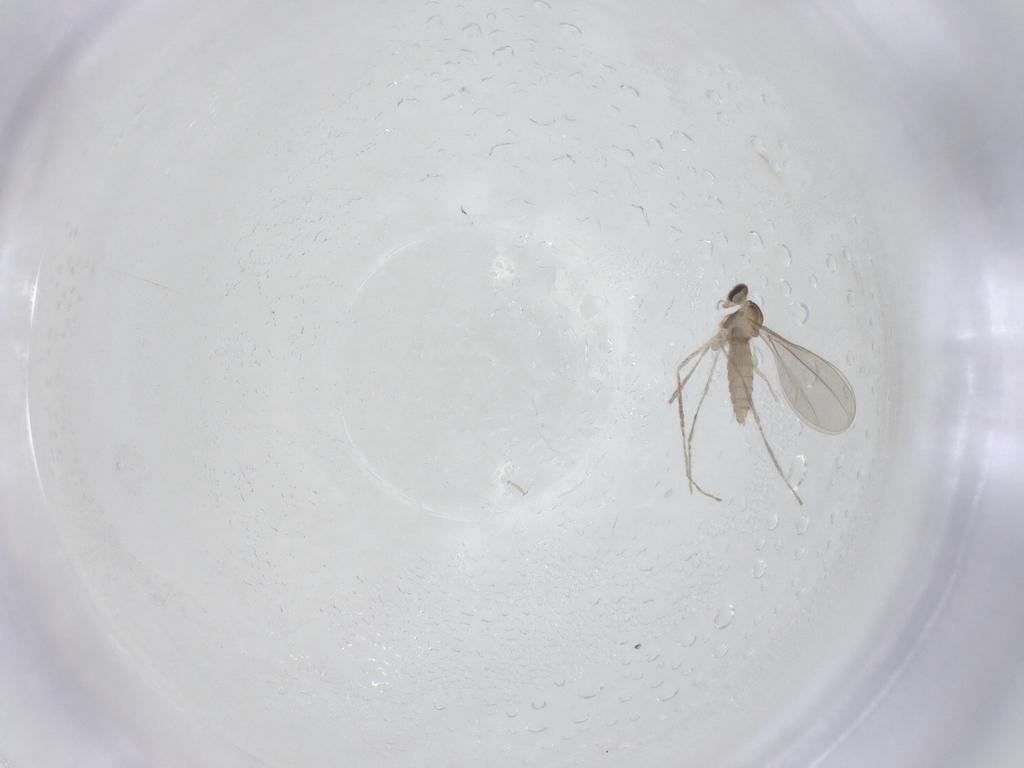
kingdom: Animalia
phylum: Arthropoda
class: Insecta
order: Diptera
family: Cecidomyiidae
